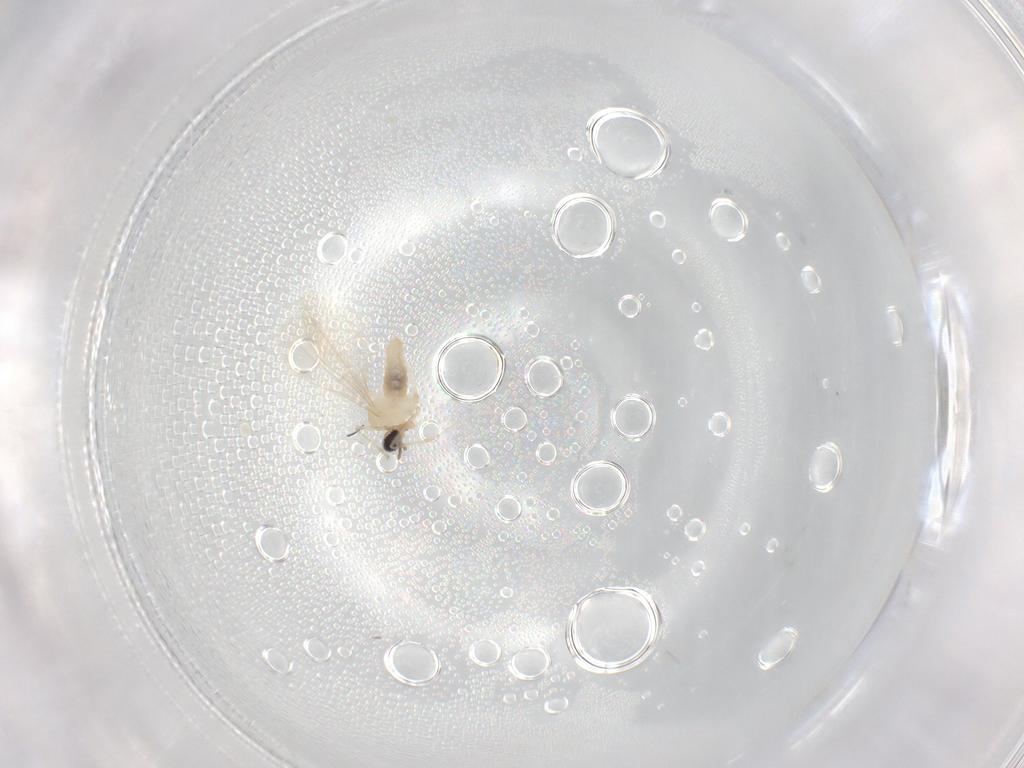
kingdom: Animalia
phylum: Arthropoda
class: Insecta
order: Diptera
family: Cecidomyiidae
